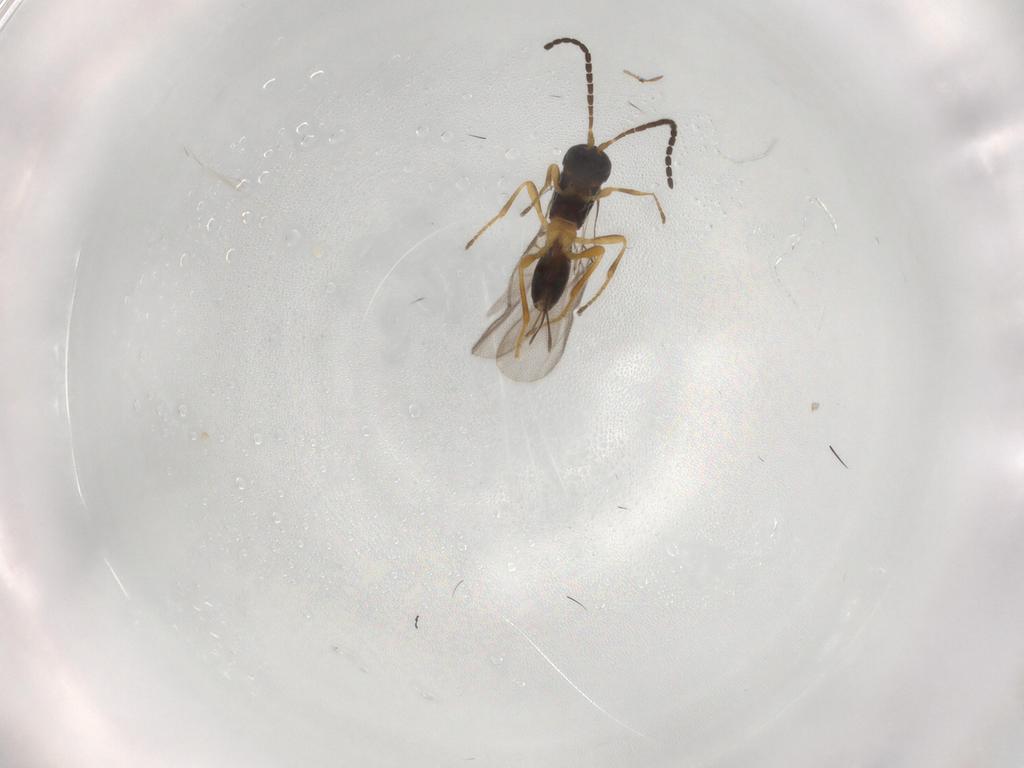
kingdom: Animalia
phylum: Arthropoda
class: Insecta
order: Hymenoptera
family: Braconidae
